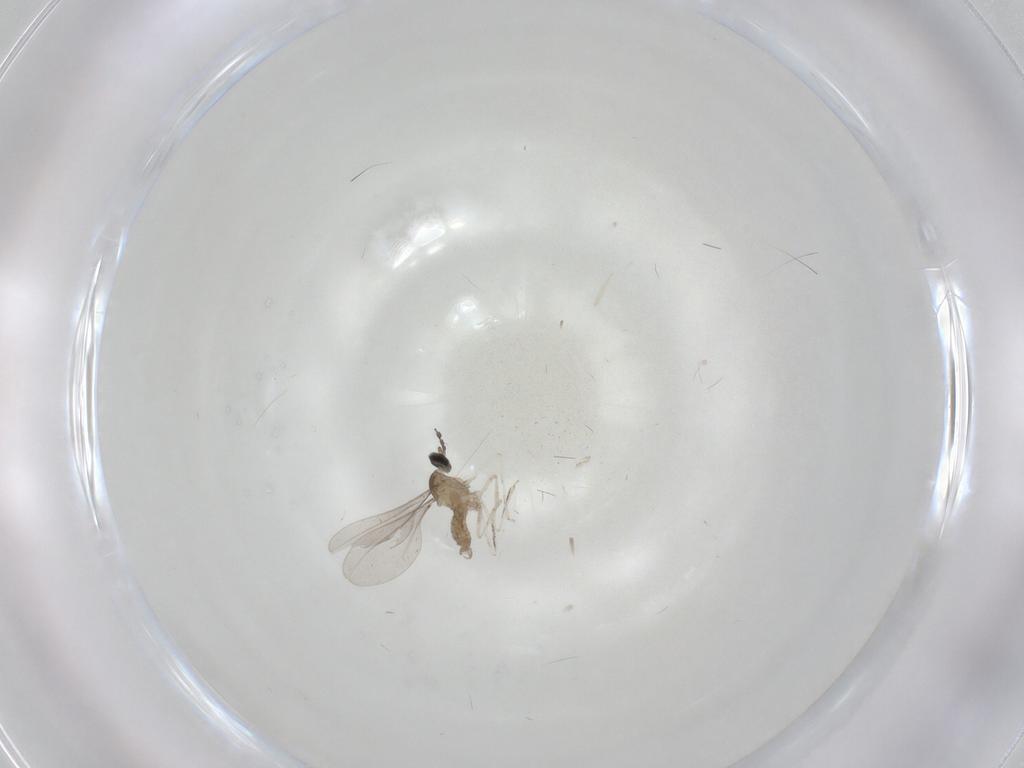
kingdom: Animalia
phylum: Arthropoda
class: Insecta
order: Diptera
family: Cecidomyiidae
